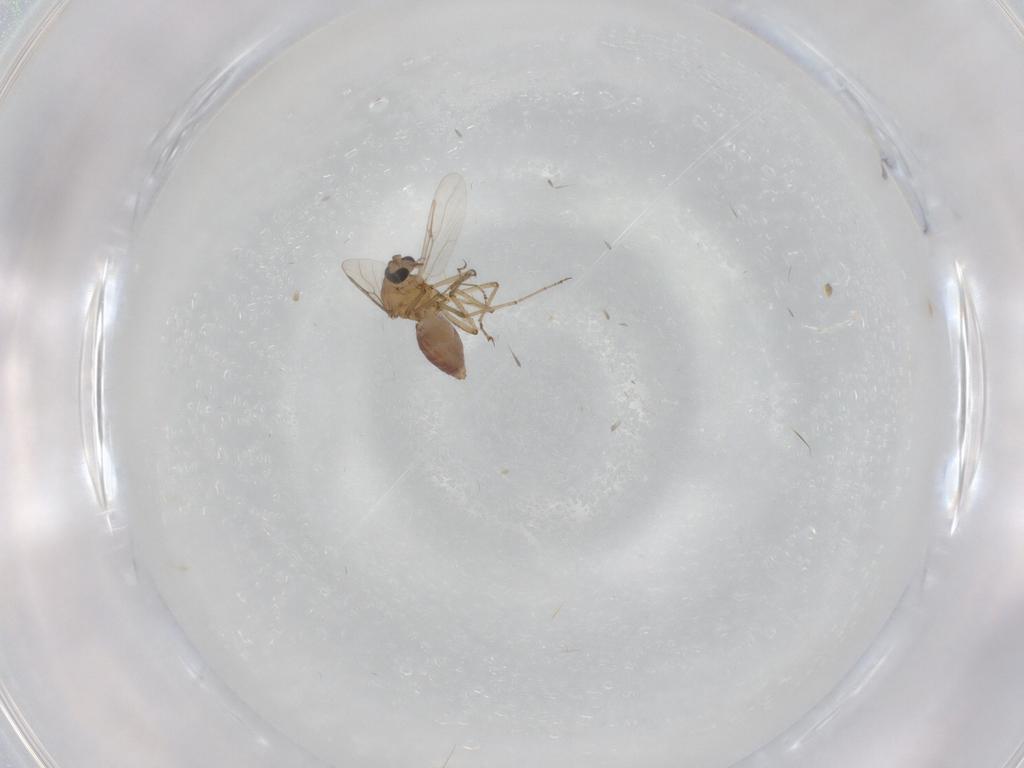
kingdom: Animalia
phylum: Arthropoda
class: Insecta
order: Diptera
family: Ceratopogonidae
